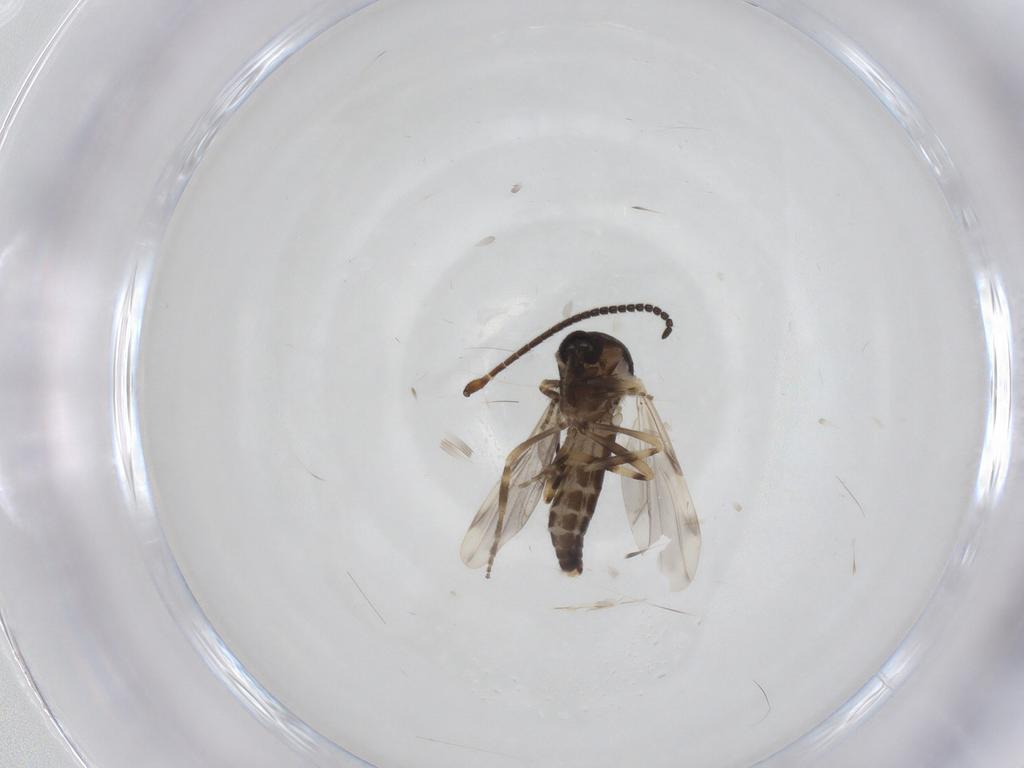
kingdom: Animalia
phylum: Arthropoda
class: Insecta
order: Diptera
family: Ceratopogonidae
